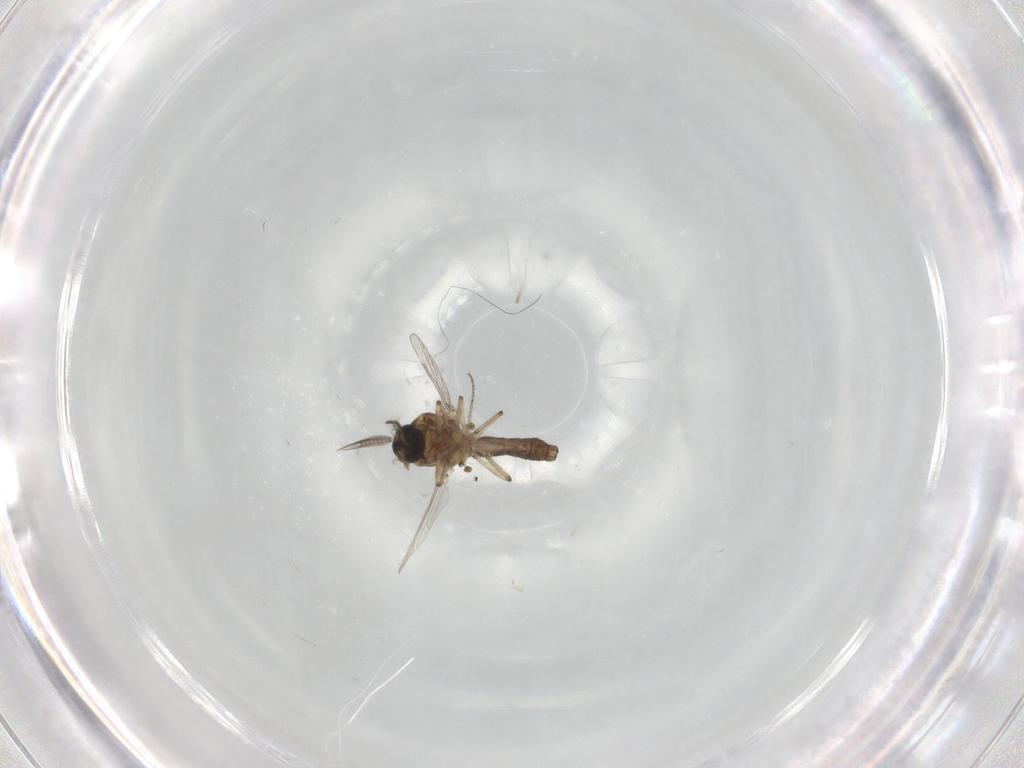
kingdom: Animalia
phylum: Arthropoda
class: Insecta
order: Diptera
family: Ceratopogonidae
